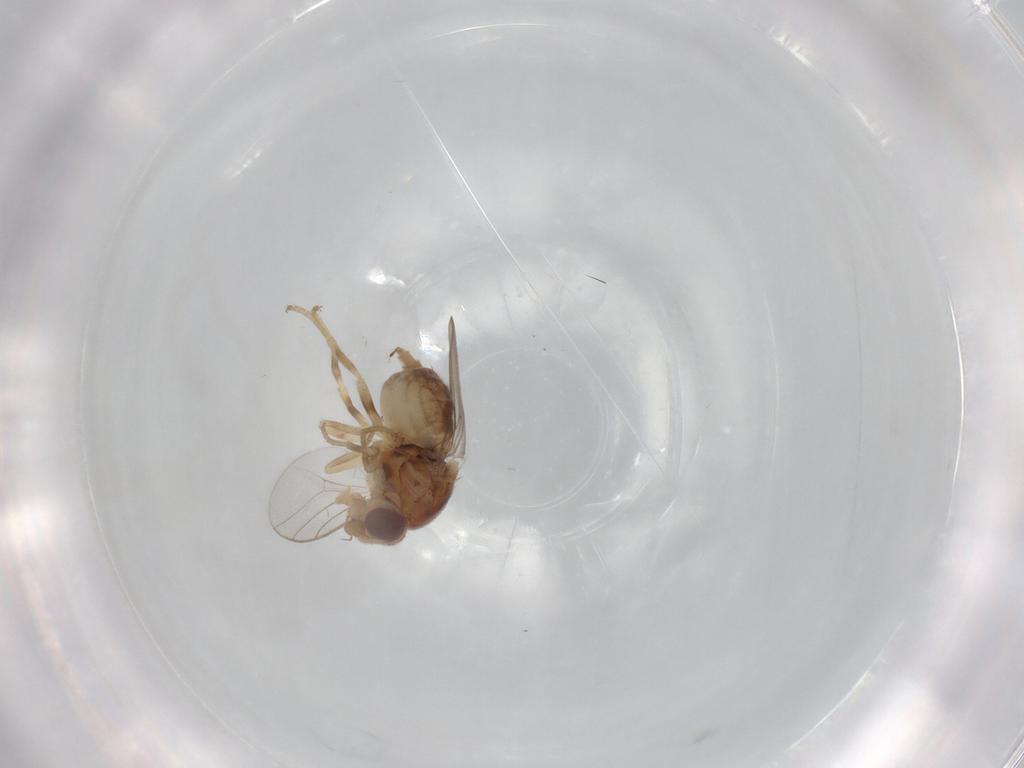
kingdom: Animalia
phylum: Arthropoda
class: Insecta
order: Diptera
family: Chloropidae
